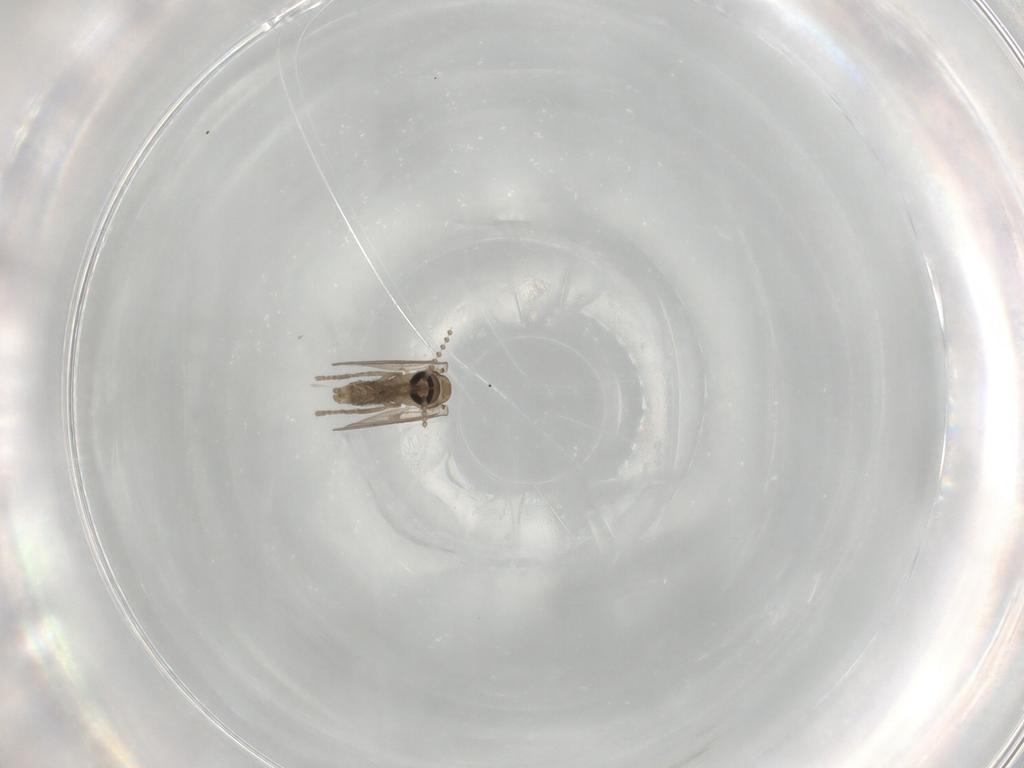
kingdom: Animalia
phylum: Arthropoda
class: Insecta
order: Diptera
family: Psychodidae
